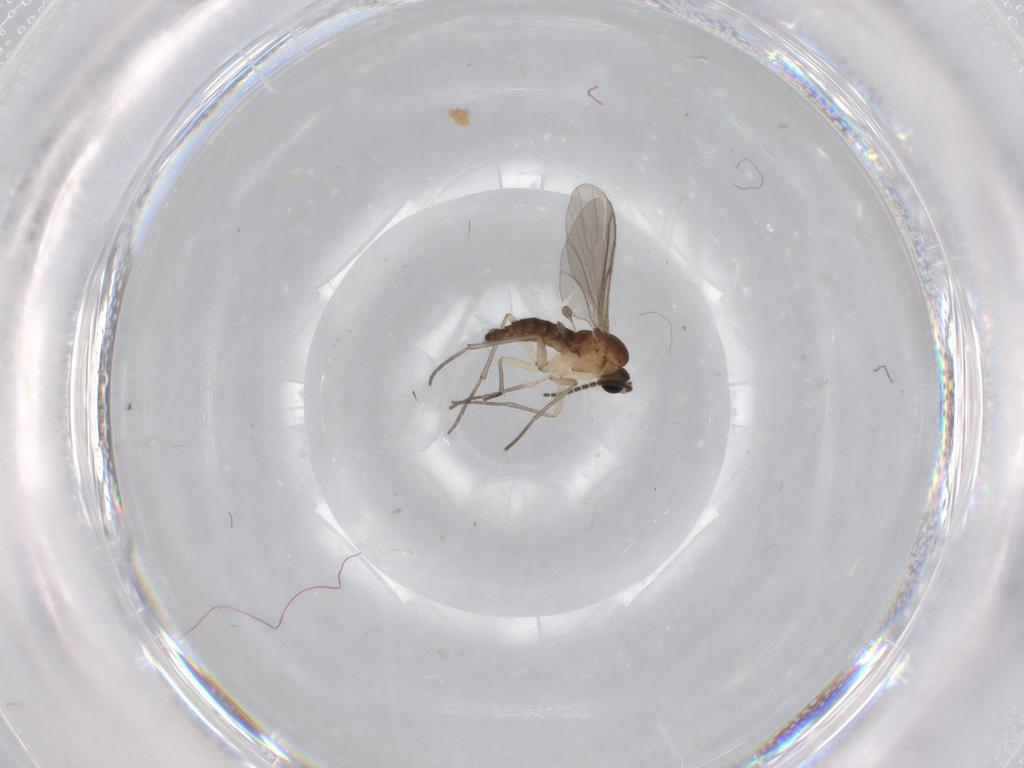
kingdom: Animalia
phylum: Arthropoda
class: Insecta
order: Diptera
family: Sciaridae
